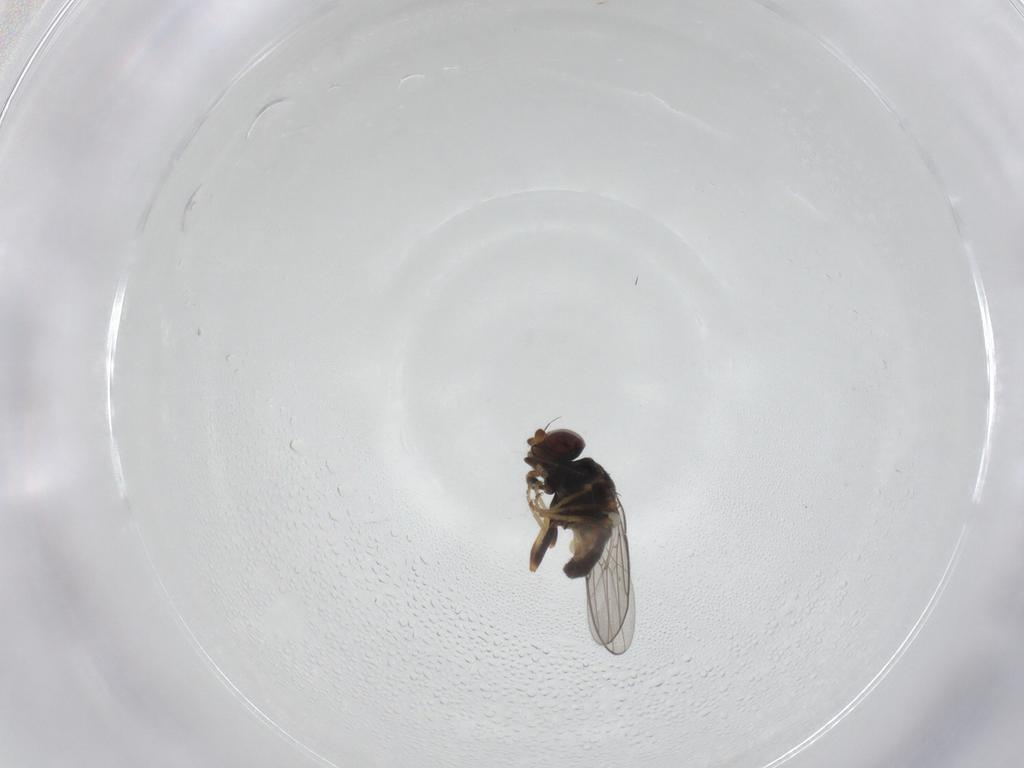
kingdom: Animalia
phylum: Arthropoda
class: Insecta
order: Diptera
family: Chloropidae
